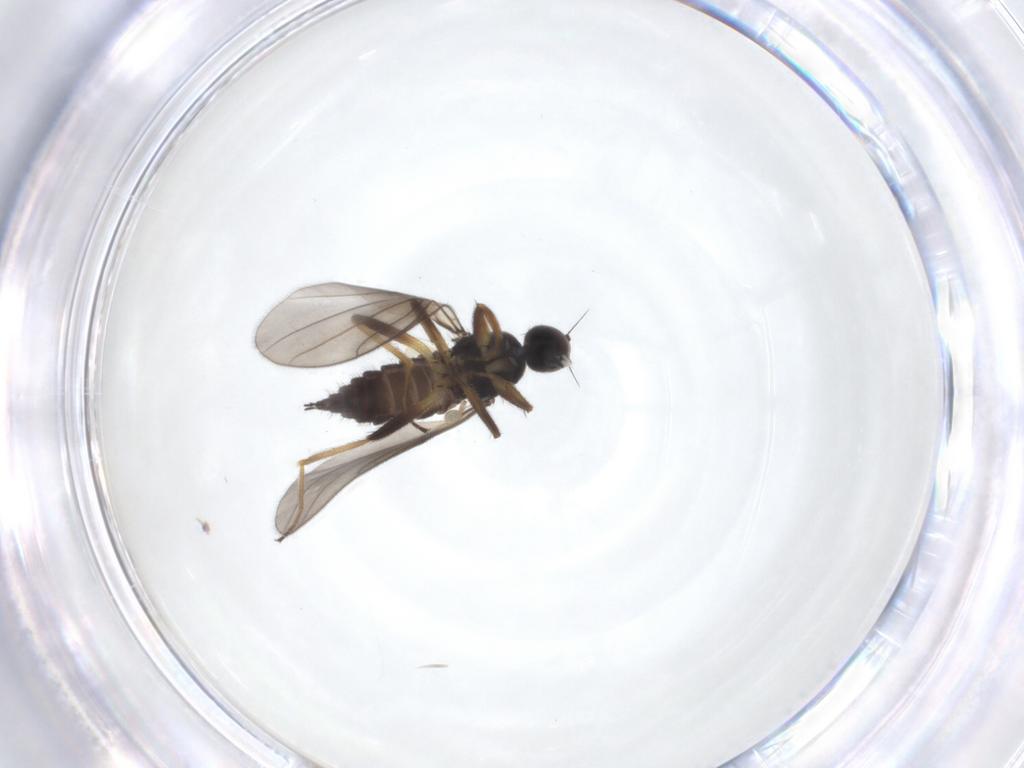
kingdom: Animalia
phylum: Arthropoda
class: Insecta
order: Diptera
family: Hybotidae
